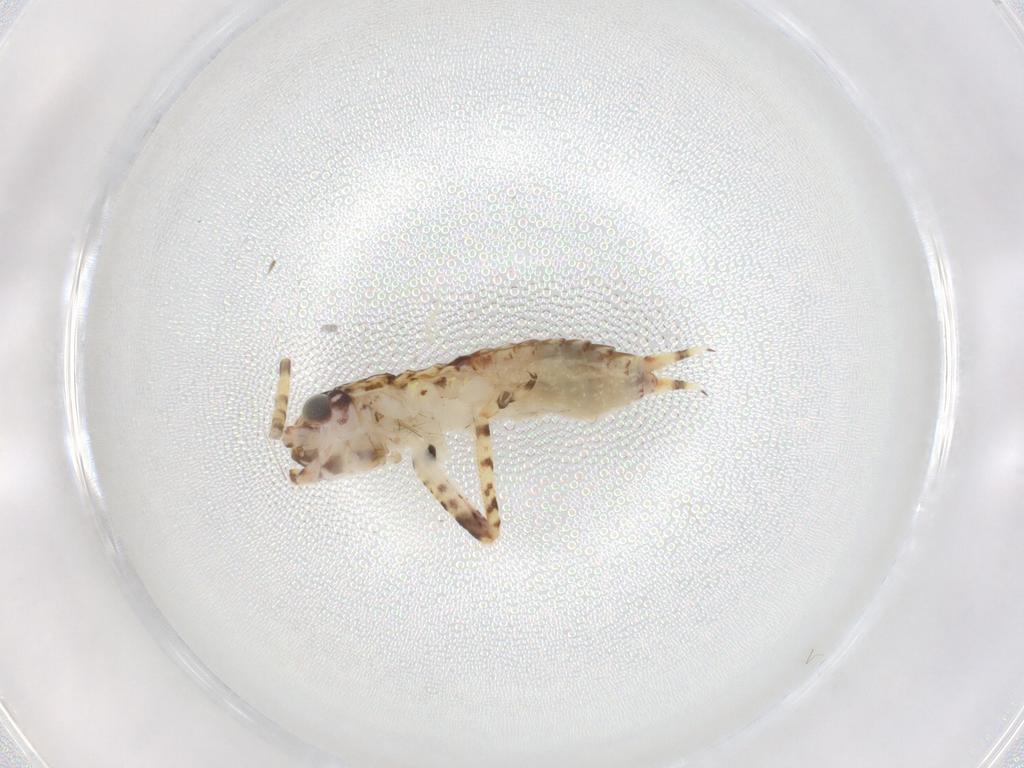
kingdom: Animalia
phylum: Arthropoda
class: Insecta
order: Orthoptera
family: Gryllidae
